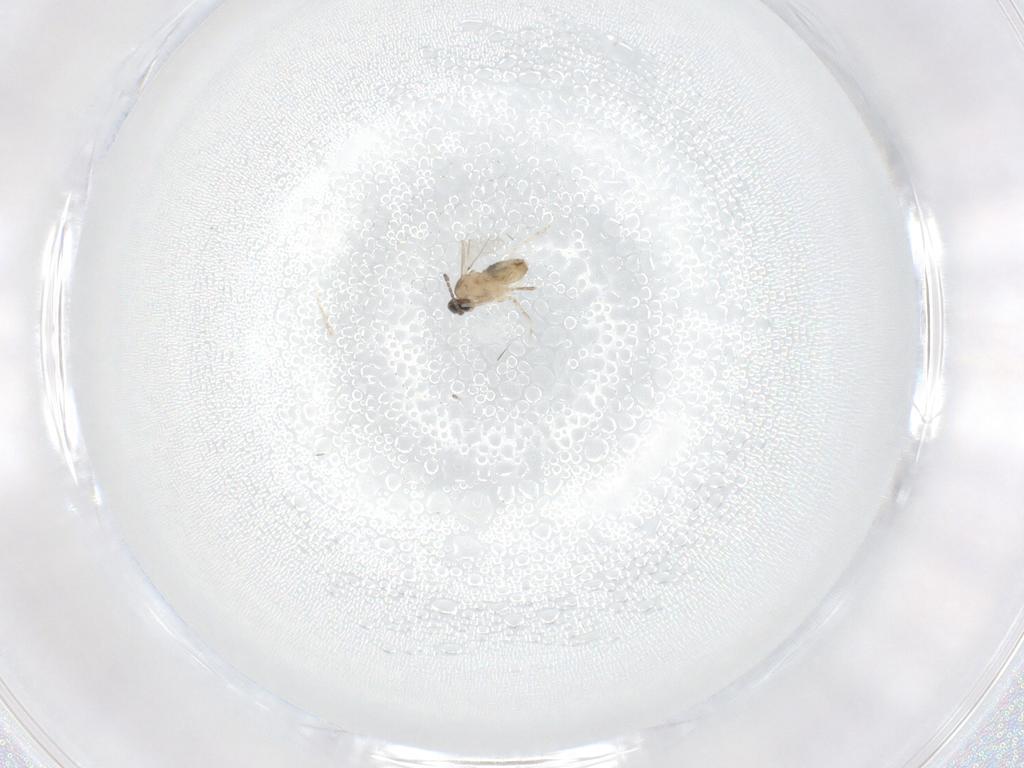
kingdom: Animalia
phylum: Arthropoda
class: Insecta
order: Diptera
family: Cecidomyiidae
